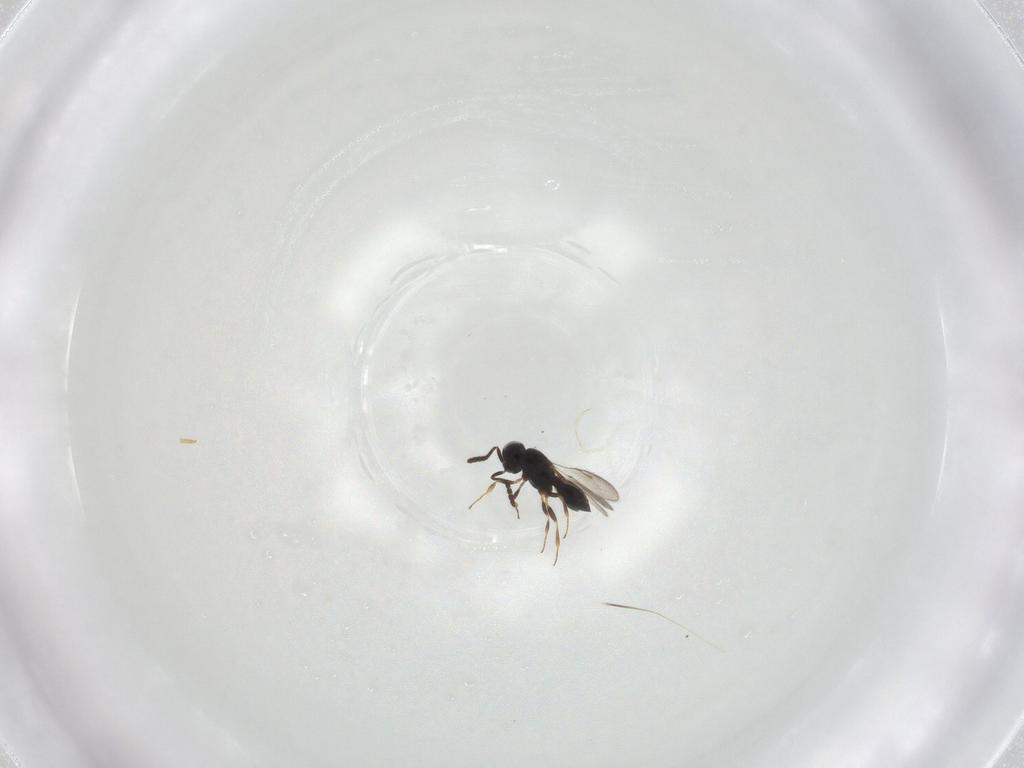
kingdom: Animalia
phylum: Arthropoda
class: Insecta
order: Hymenoptera
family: Scelionidae
